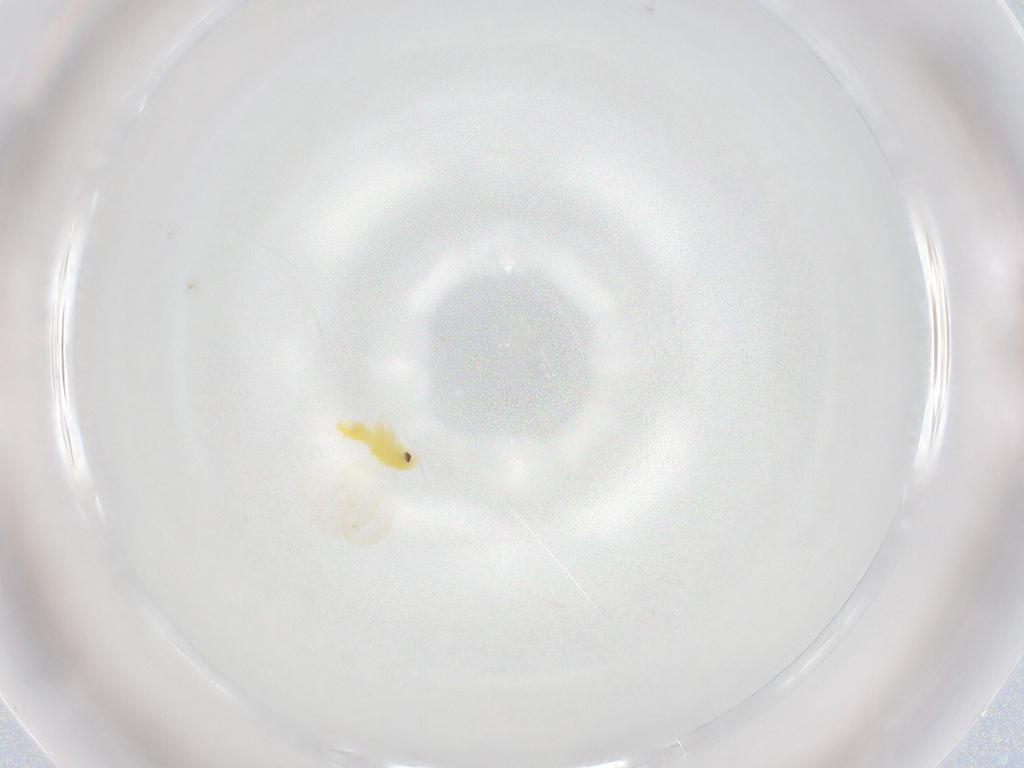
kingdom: Animalia
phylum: Arthropoda
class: Insecta
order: Hemiptera
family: Aleyrodidae
